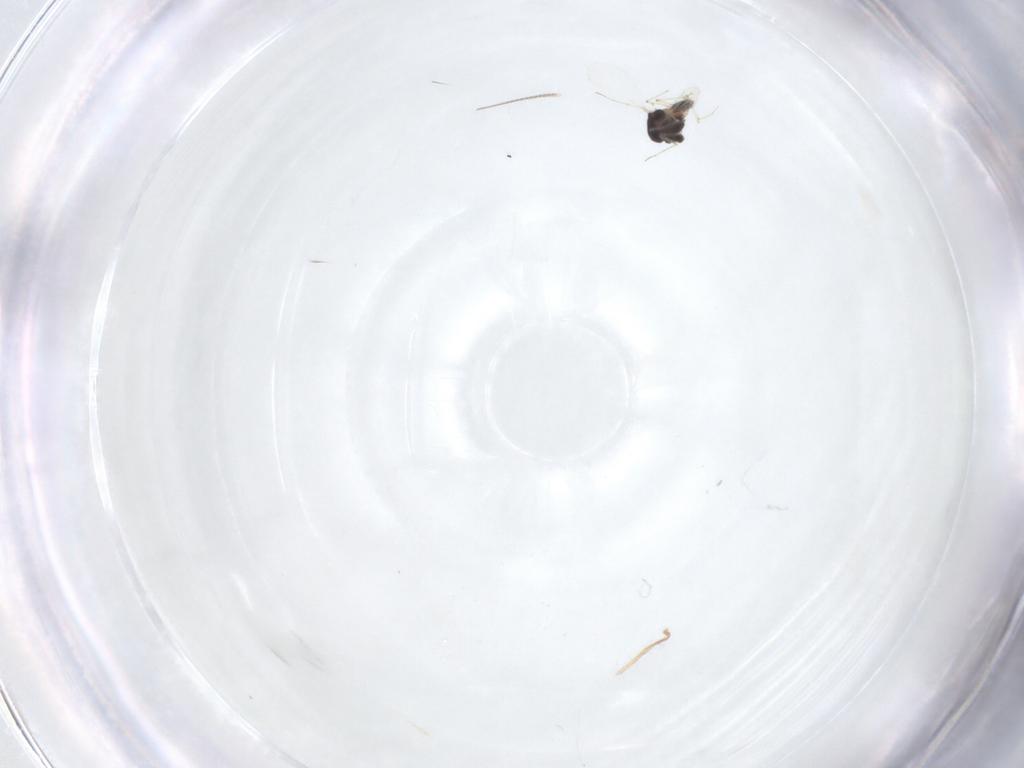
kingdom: Animalia
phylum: Arthropoda
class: Insecta
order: Diptera
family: Chironomidae
